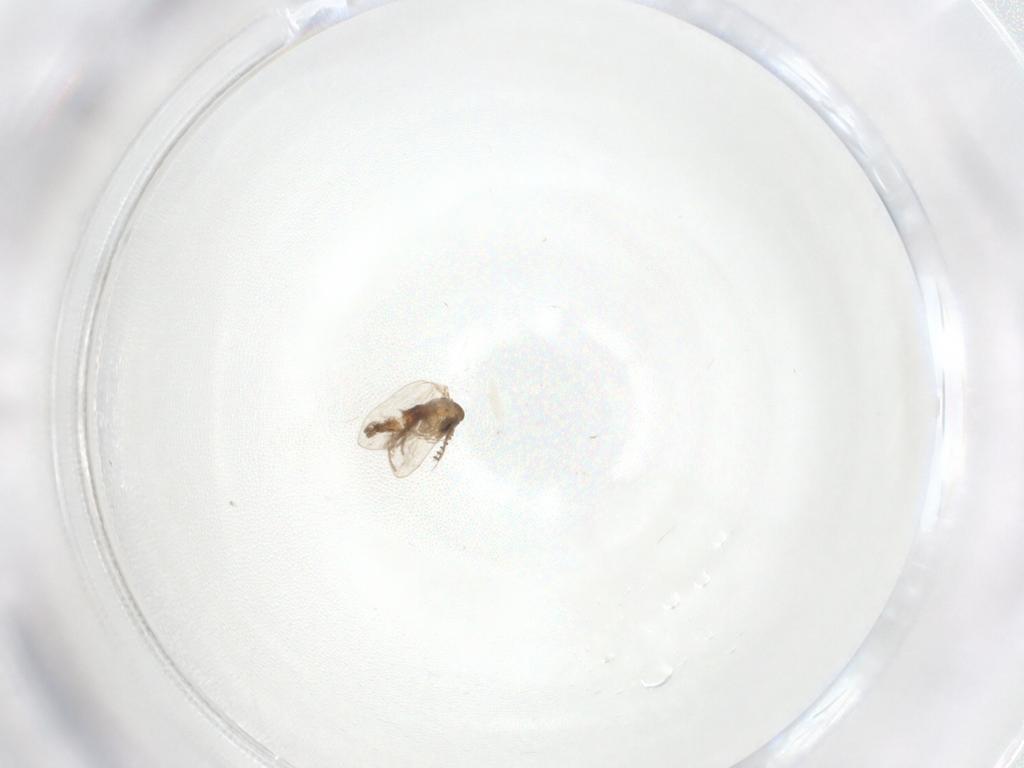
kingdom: Animalia
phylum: Arthropoda
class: Insecta
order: Diptera
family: Psychodidae
